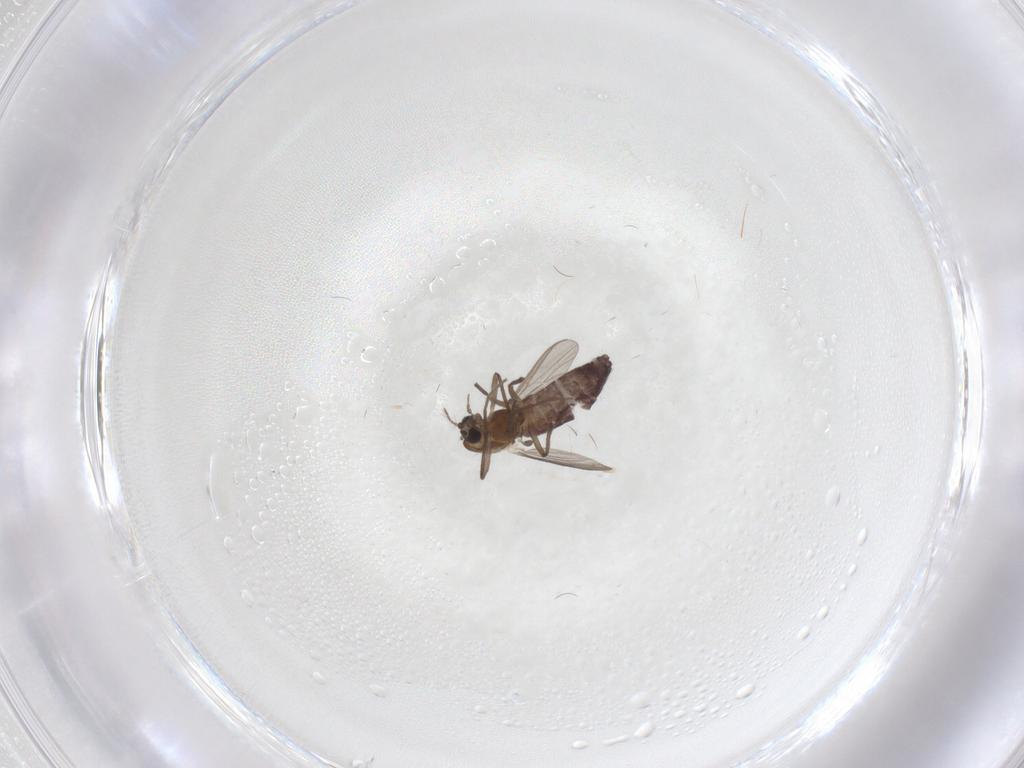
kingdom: Animalia
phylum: Arthropoda
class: Insecta
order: Diptera
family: Chironomidae
